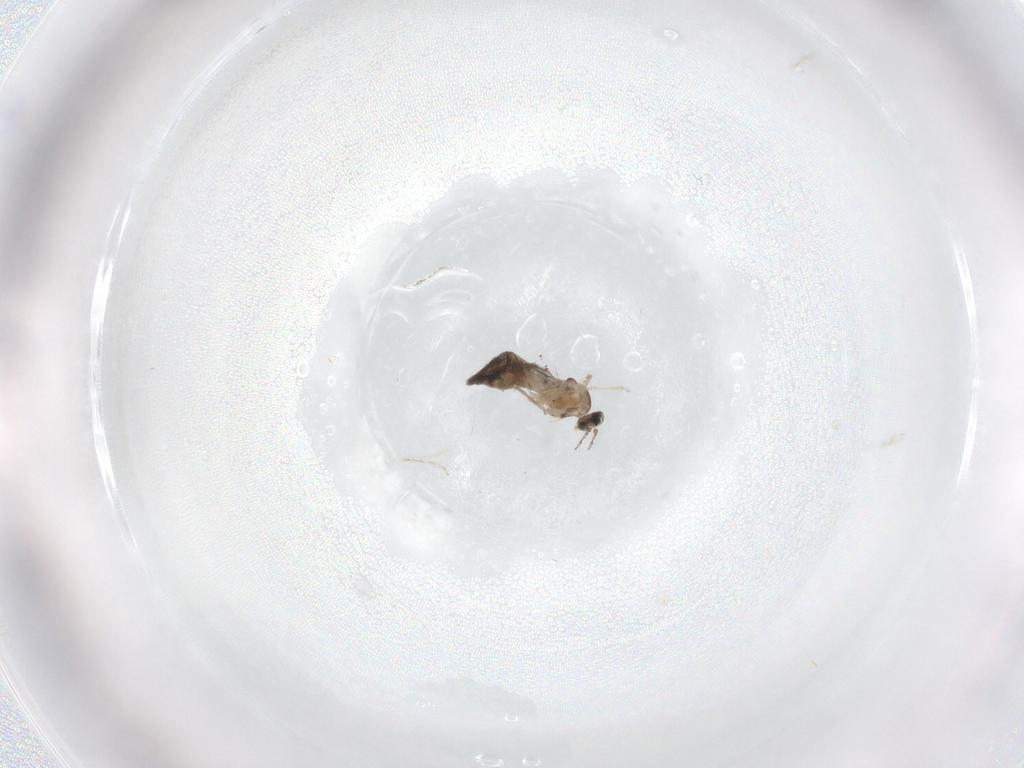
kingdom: Animalia
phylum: Arthropoda
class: Insecta
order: Diptera
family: Cecidomyiidae
